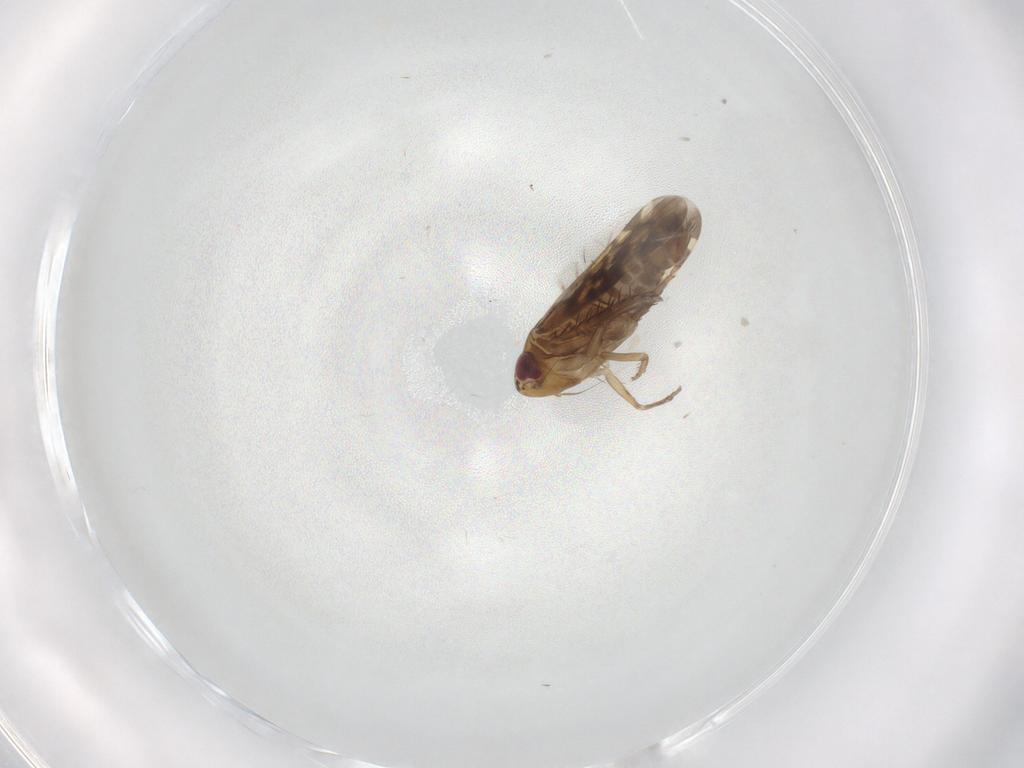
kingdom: Animalia
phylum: Arthropoda
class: Insecta
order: Hemiptera
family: Cicadellidae
